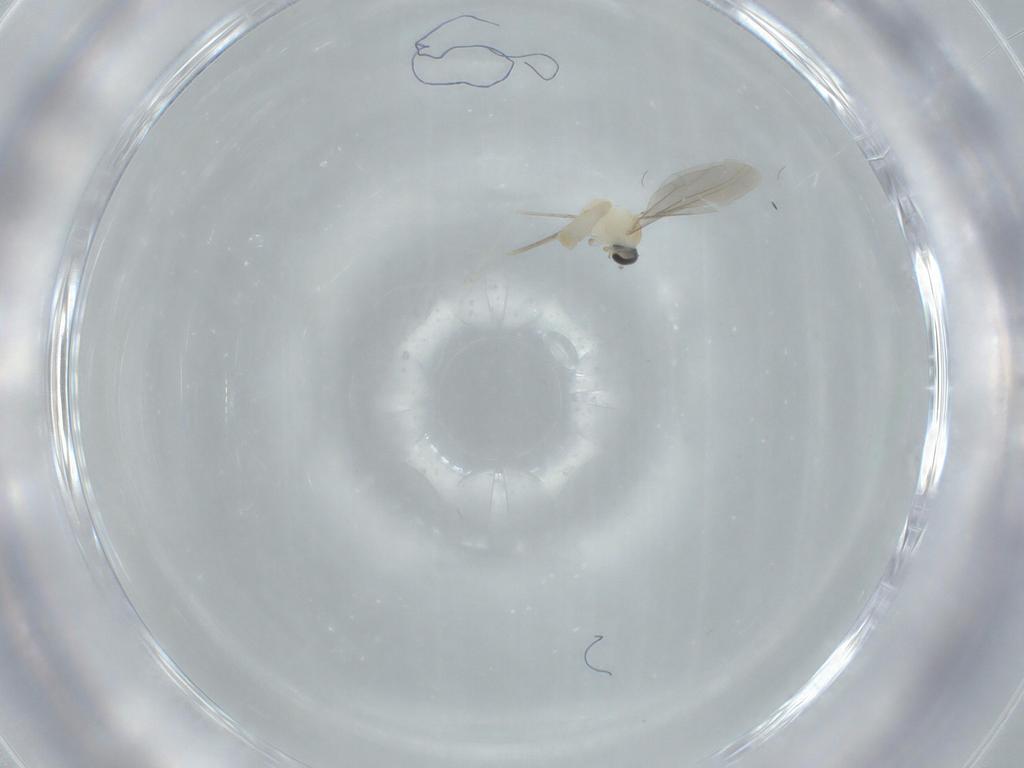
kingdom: Animalia
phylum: Arthropoda
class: Insecta
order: Diptera
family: Cecidomyiidae
